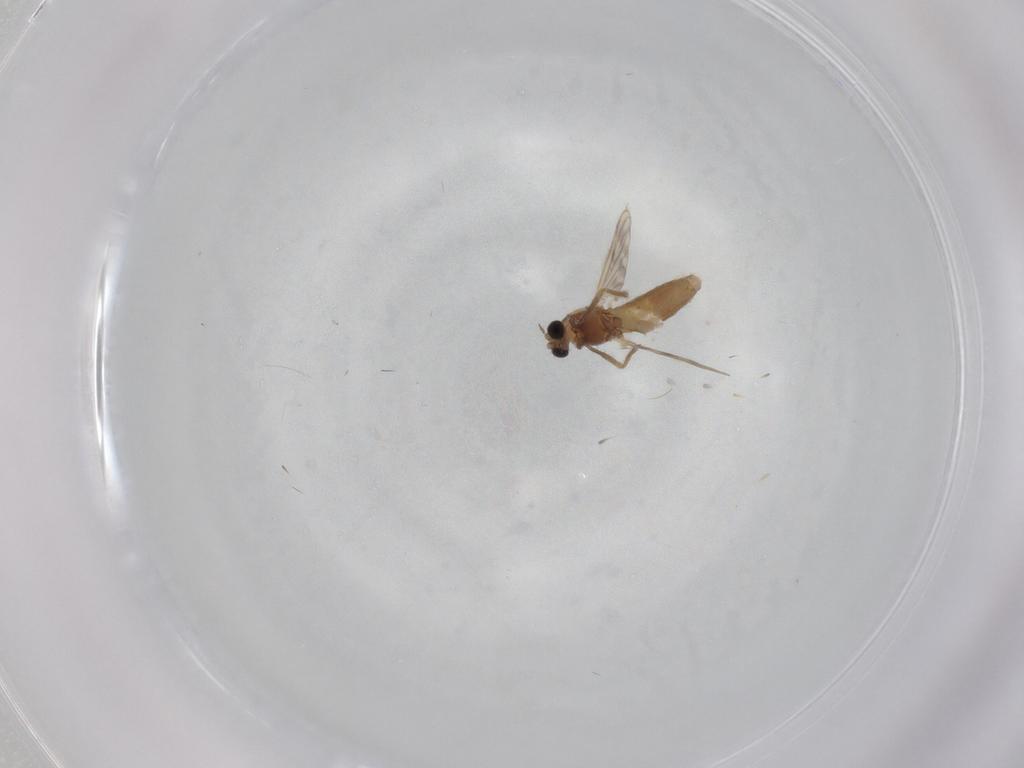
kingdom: Animalia
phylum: Arthropoda
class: Insecta
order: Diptera
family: Chironomidae
